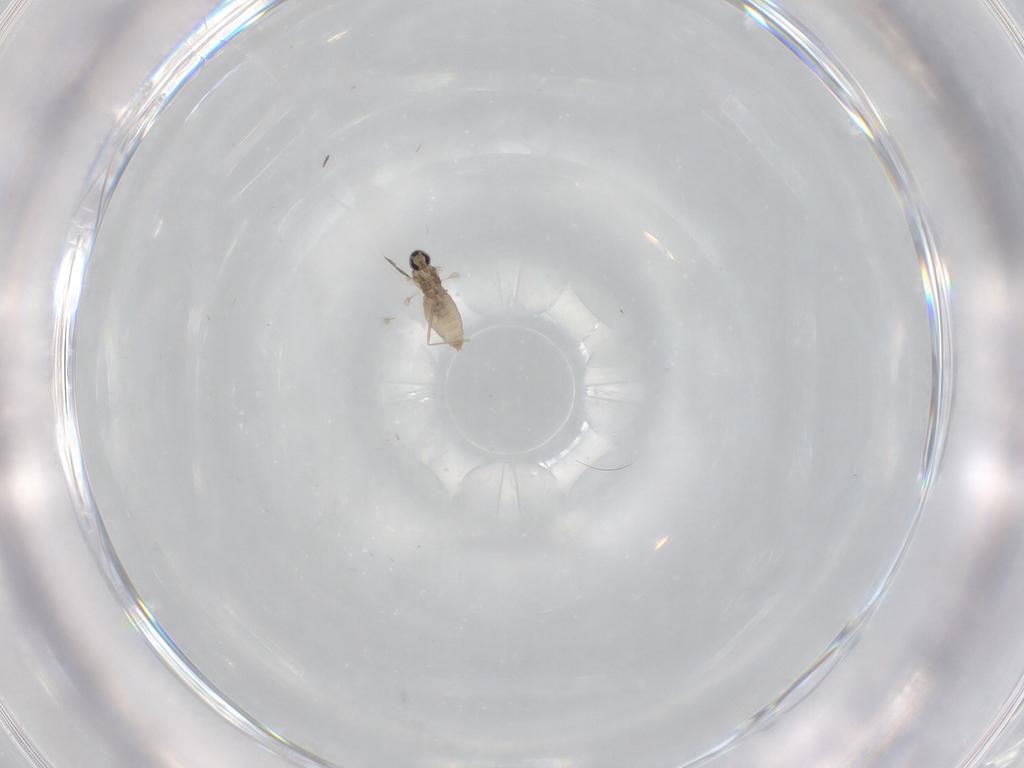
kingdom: Animalia
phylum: Arthropoda
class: Insecta
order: Diptera
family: Cecidomyiidae
